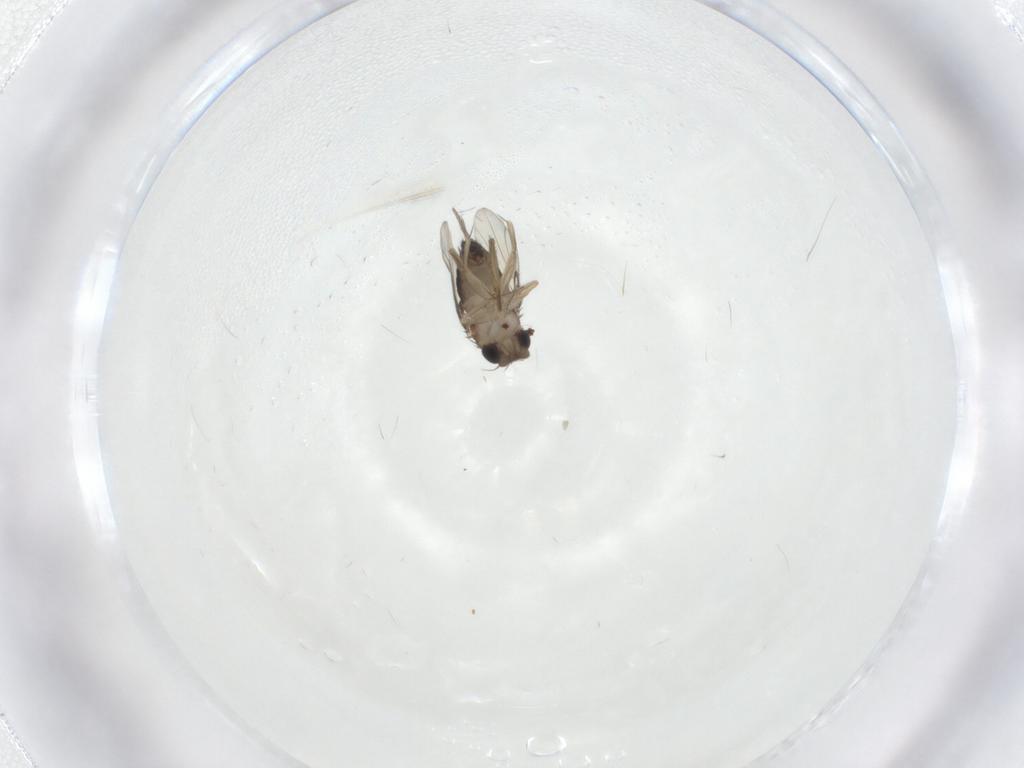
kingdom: Animalia
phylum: Arthropoda
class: Insecta
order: Diptera
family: Phoridae
